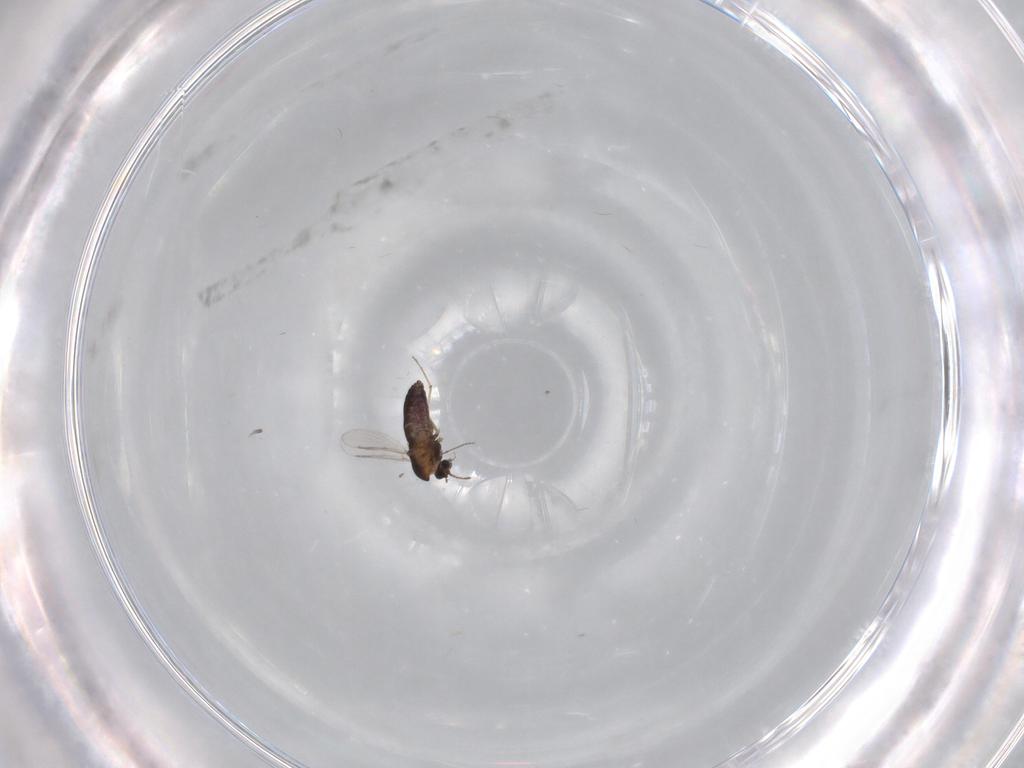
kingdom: Animalia
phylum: Arthropoda
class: Insecta
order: Diptera
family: Chironomidae
